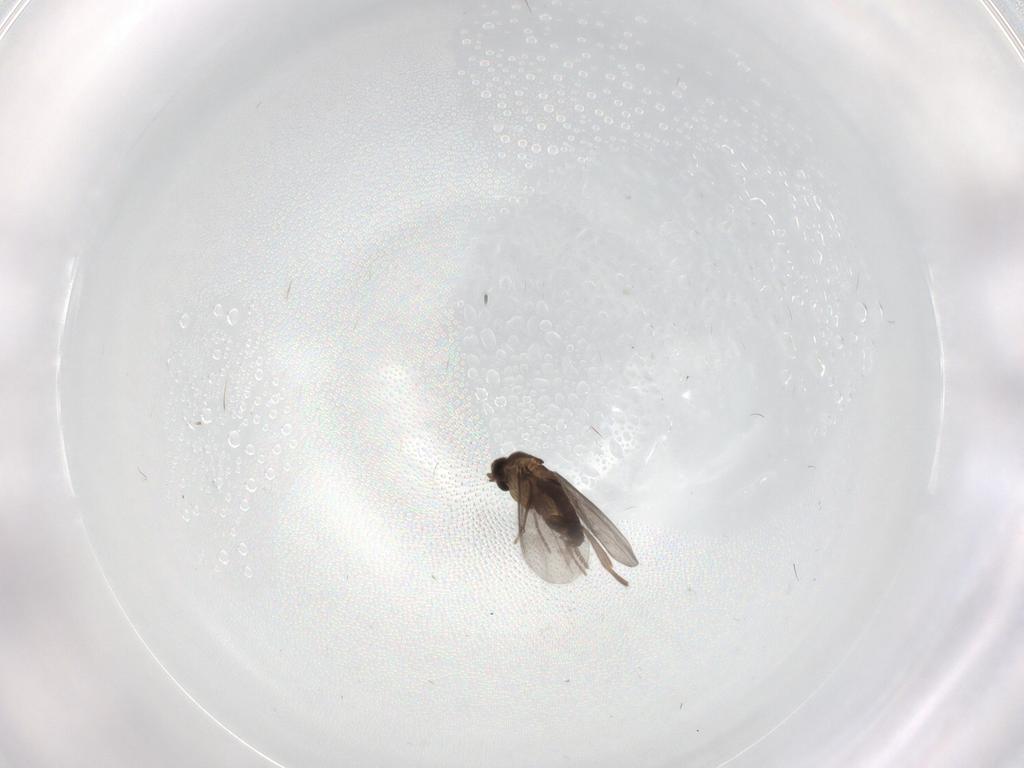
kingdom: Animalia
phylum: Arthropoda
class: Insecta
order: Diptera
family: Phoridae
